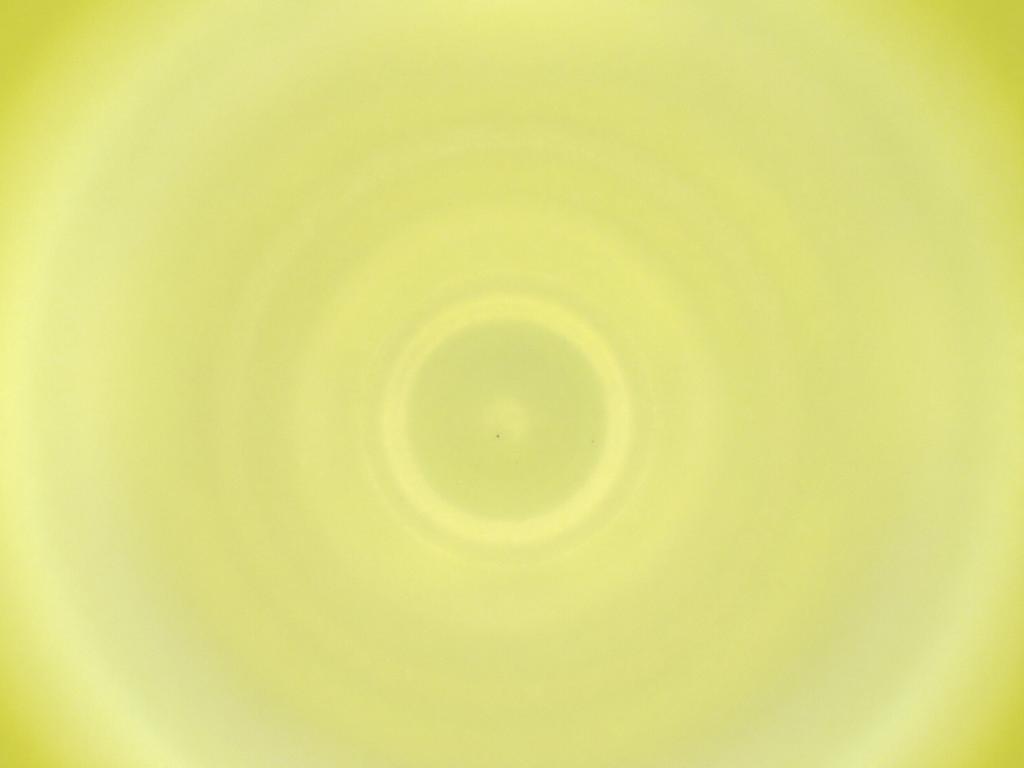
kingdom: Animalia
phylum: Arthropoda
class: Insecta
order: Diptera
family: Cecidomyiidae
